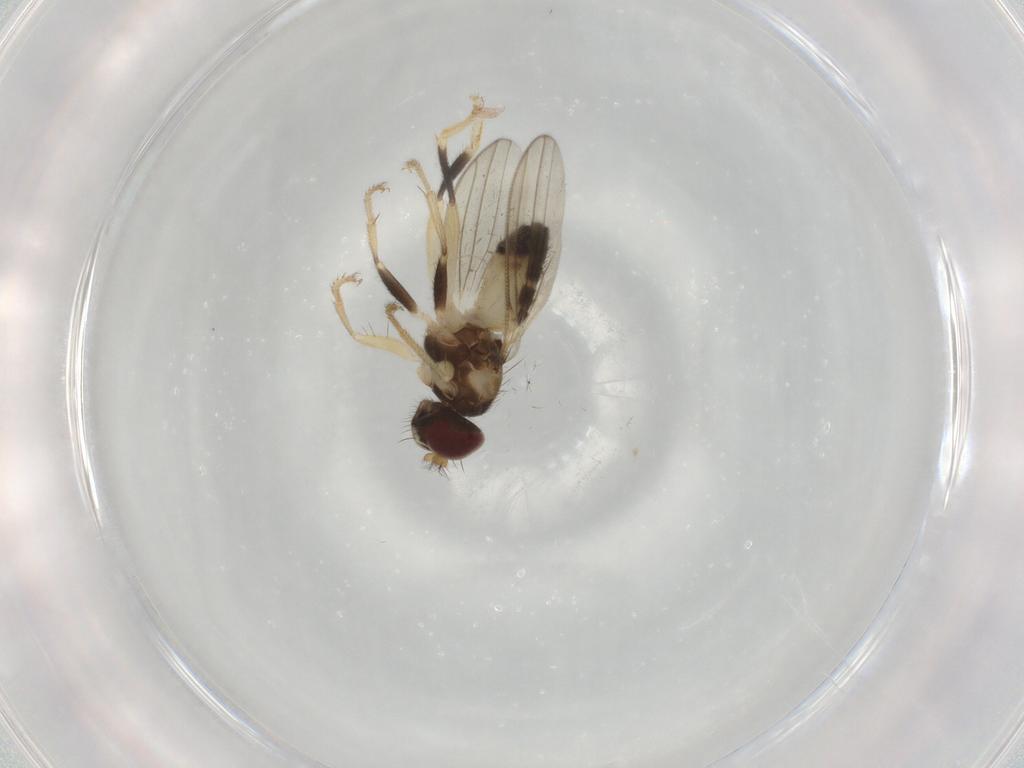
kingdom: Animalia
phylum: Arthropoda
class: Insecta
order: Diptera
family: Periscelididae
